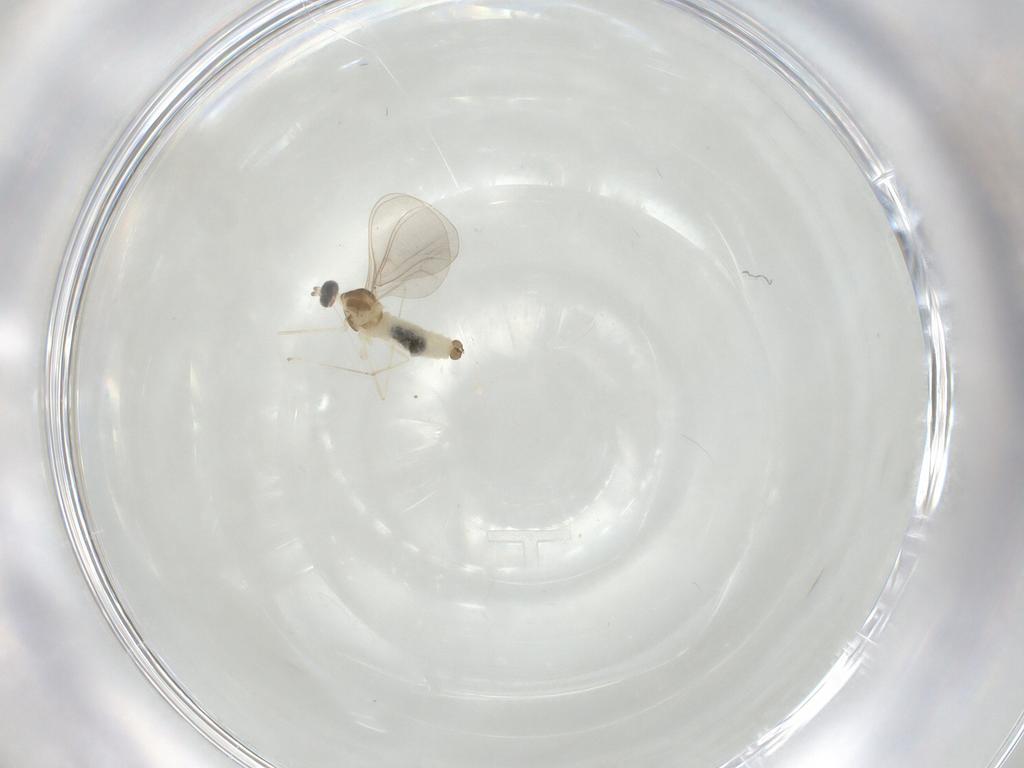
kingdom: Animalia
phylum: Arthropoda
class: Insecta
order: Diptera
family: Cecidomyiidae
